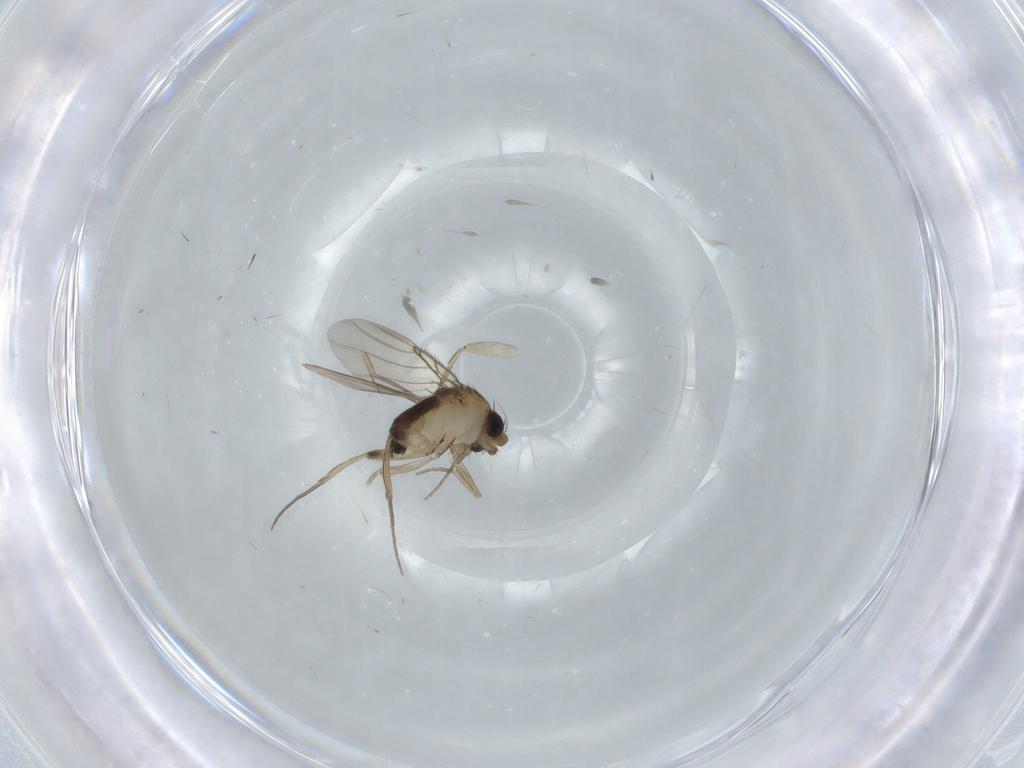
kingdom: Animalia
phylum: Arthropoda
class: Insecta
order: Diptera
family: Phoridae
